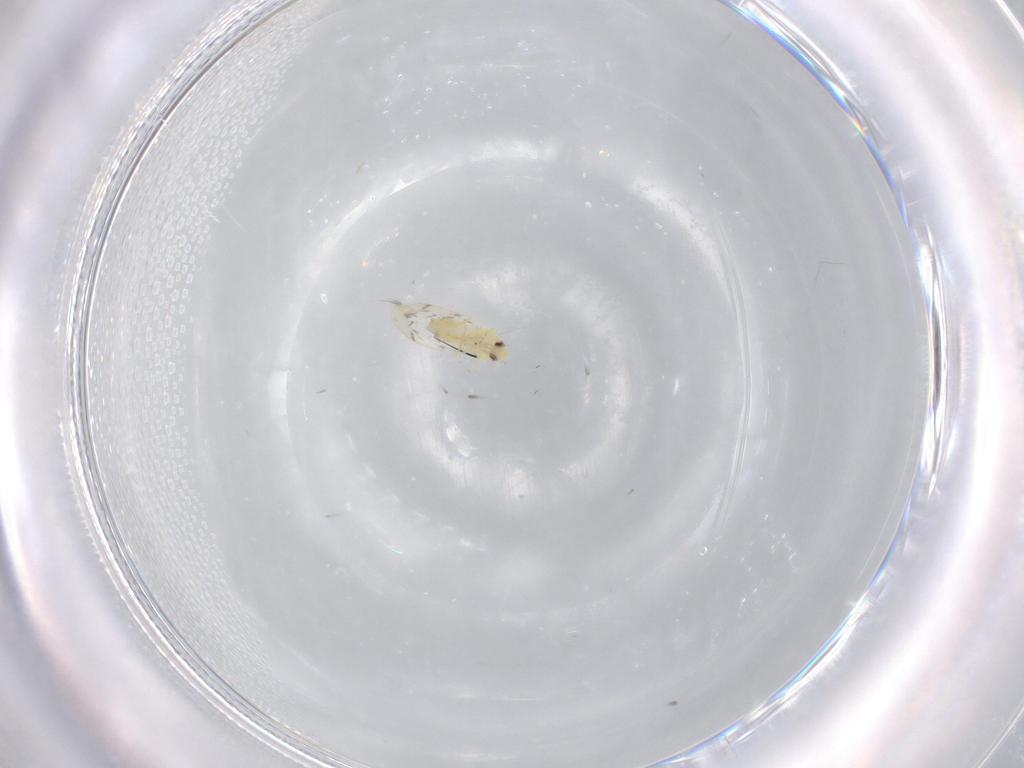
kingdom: Animalia
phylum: Arthropoda
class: Insecta
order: Hemiptera
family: Aleyrodidae
